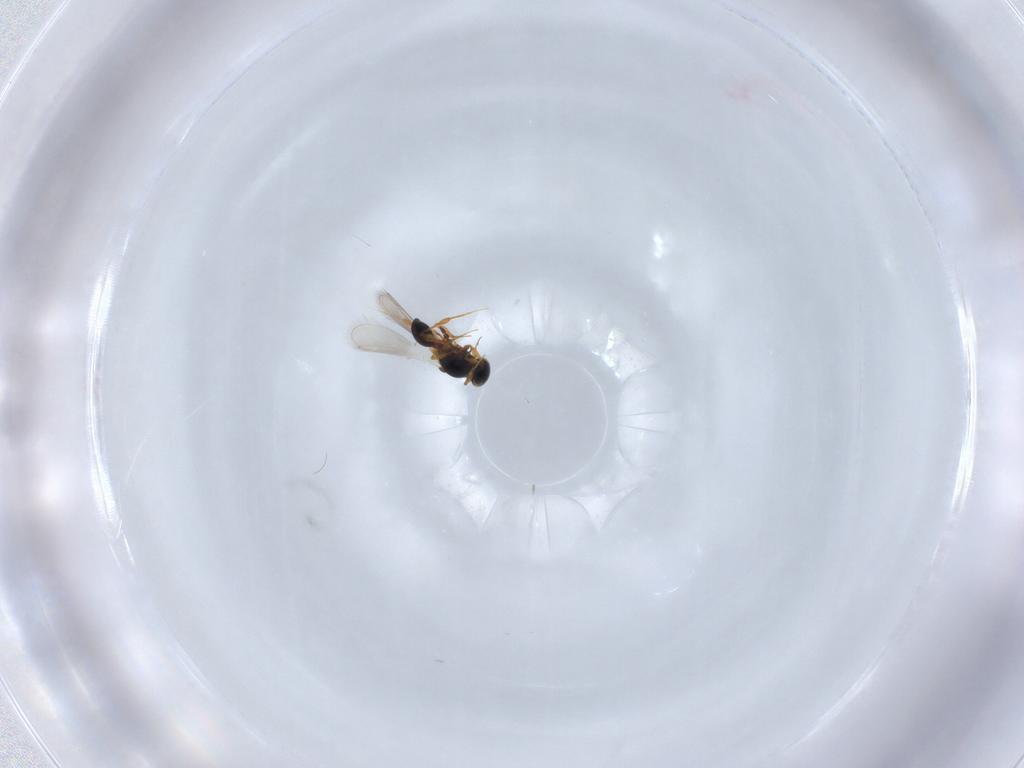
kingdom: Animalia
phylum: Arthropoda
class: Insecta
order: Hymenoptera
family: Platygastridae
